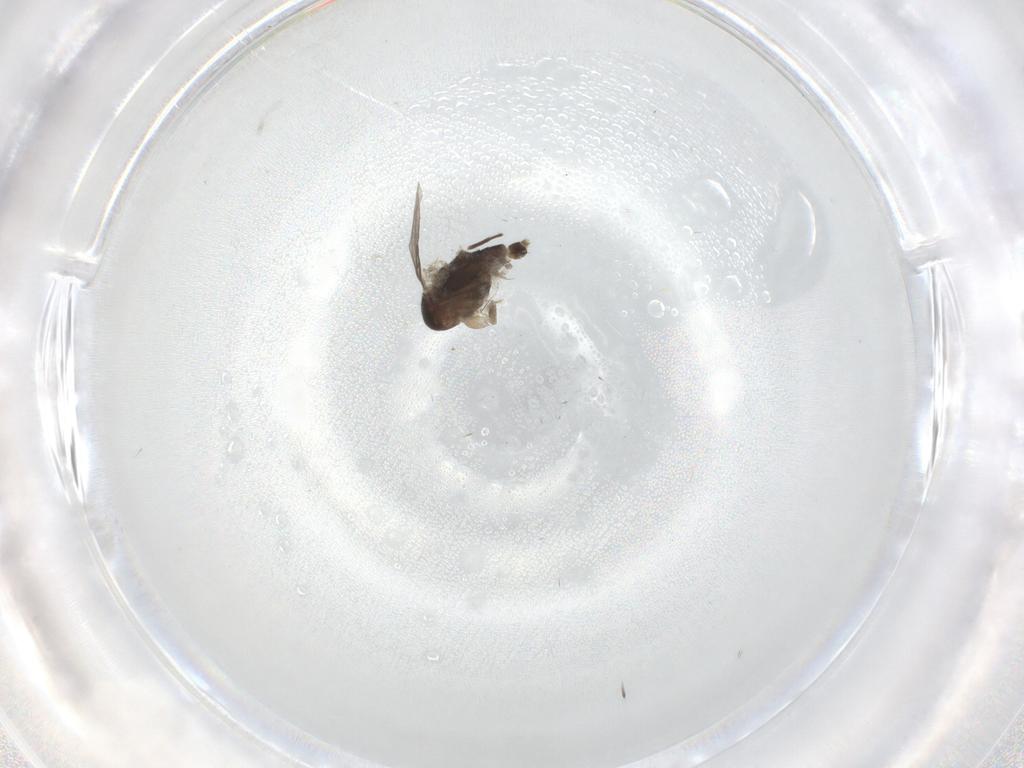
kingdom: Animalia
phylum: Arthropoda
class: Insecta
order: Diptera
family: Phoridae
